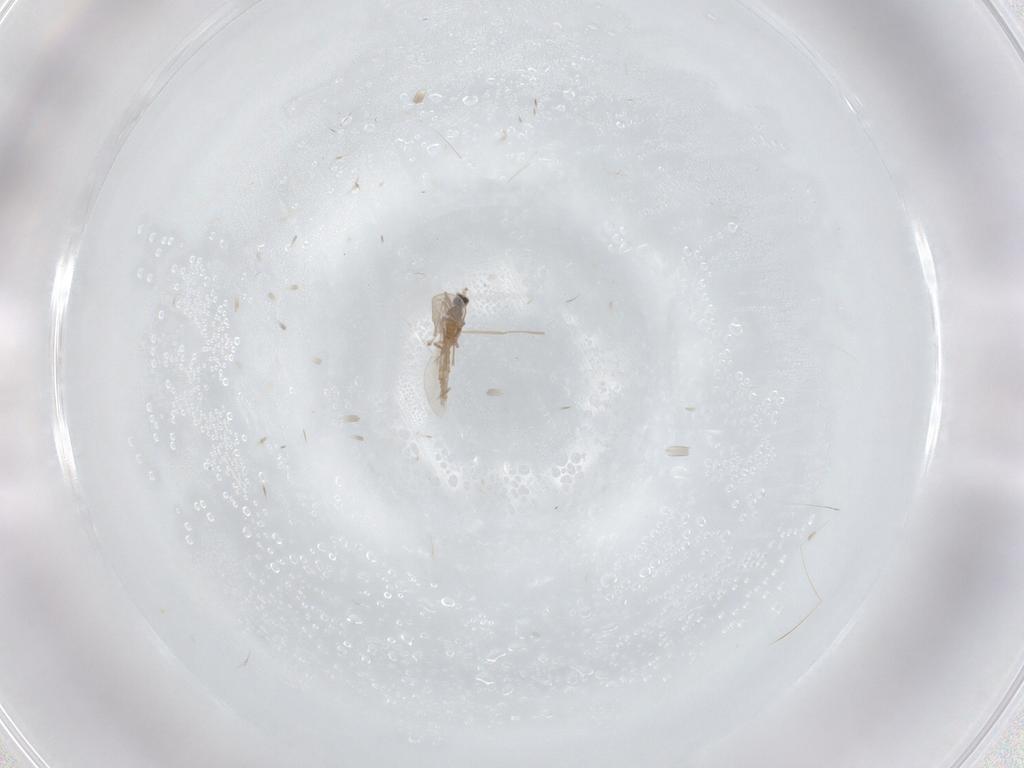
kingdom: Animalia
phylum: Arthropoda
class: Insecta
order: Diptera
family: Cecidomyiidae
